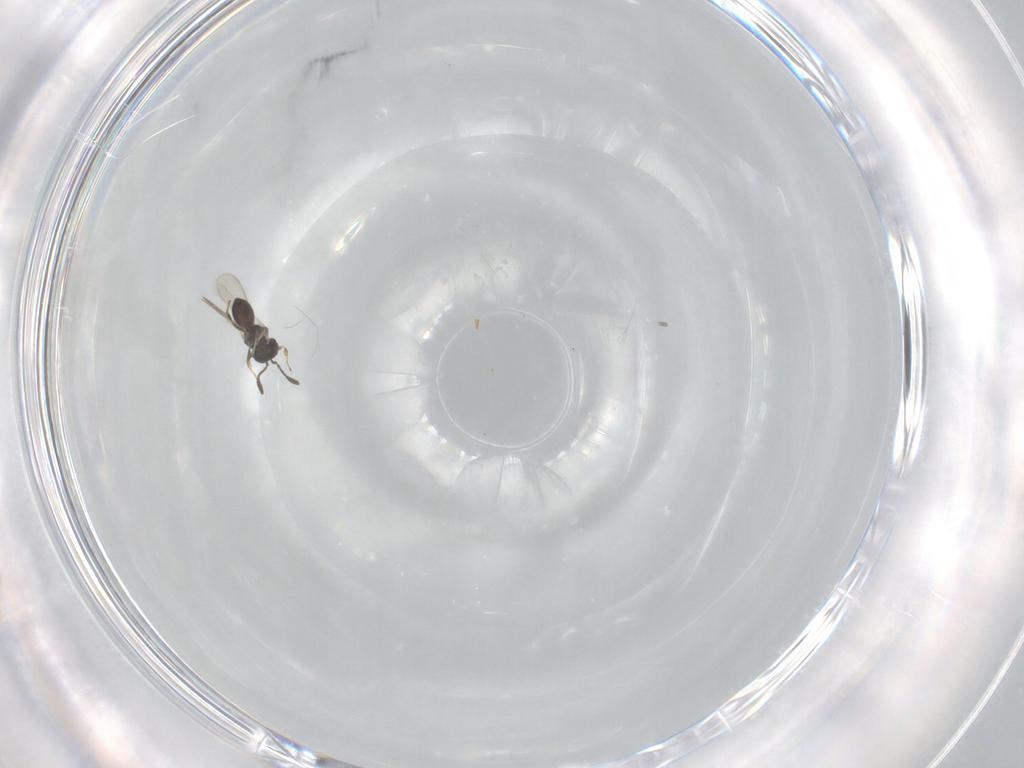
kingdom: Animalia
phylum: Arthropoda
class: Insecta
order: Hymenoptera
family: Scelionidae
